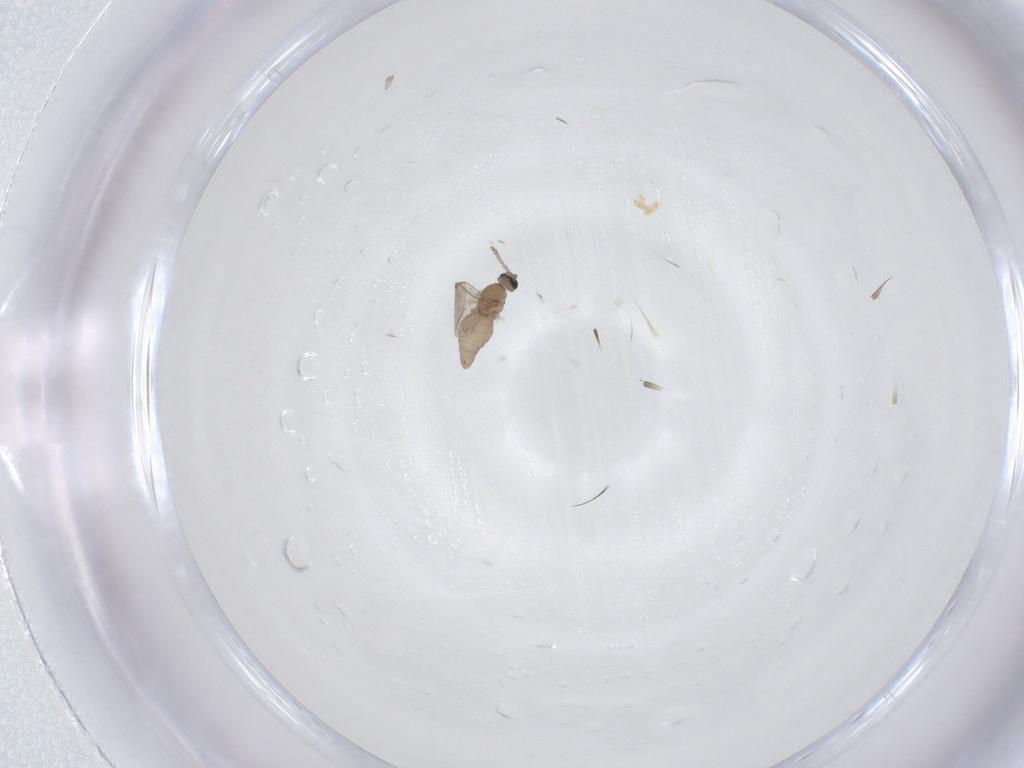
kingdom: Animalia
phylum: Arthropoda
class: Insecta
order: Diptera
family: Cecidomyiidae
